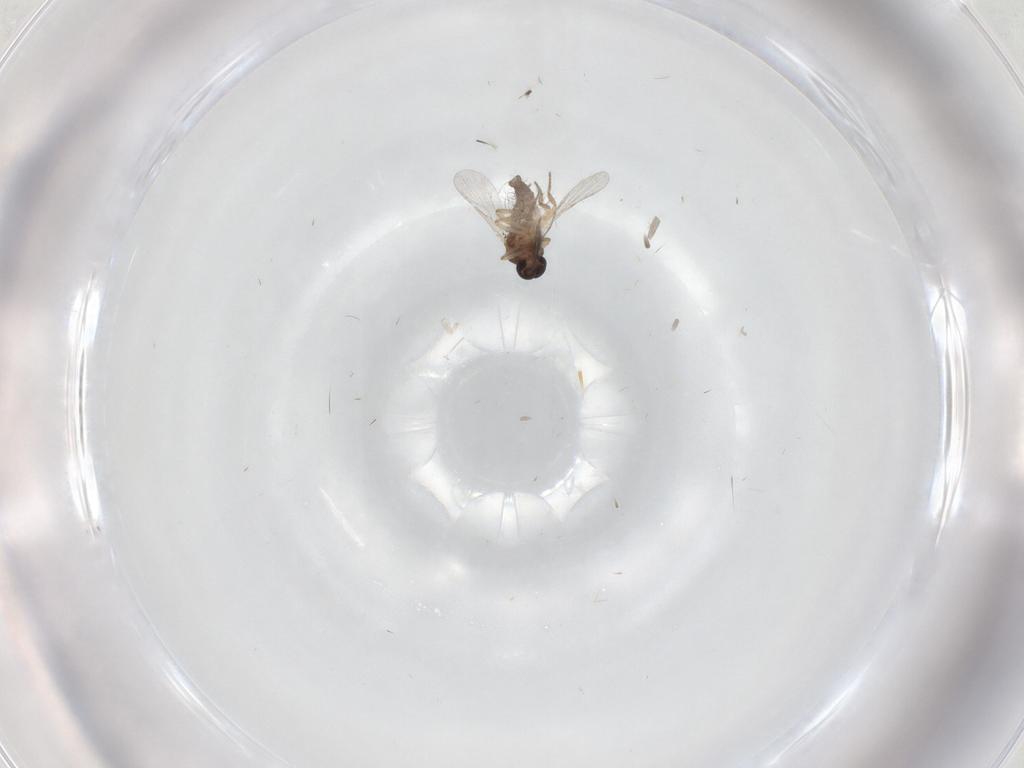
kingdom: Animalia
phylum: Arthropoda
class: Insecta
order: Diptera
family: Ceratopogonidae
